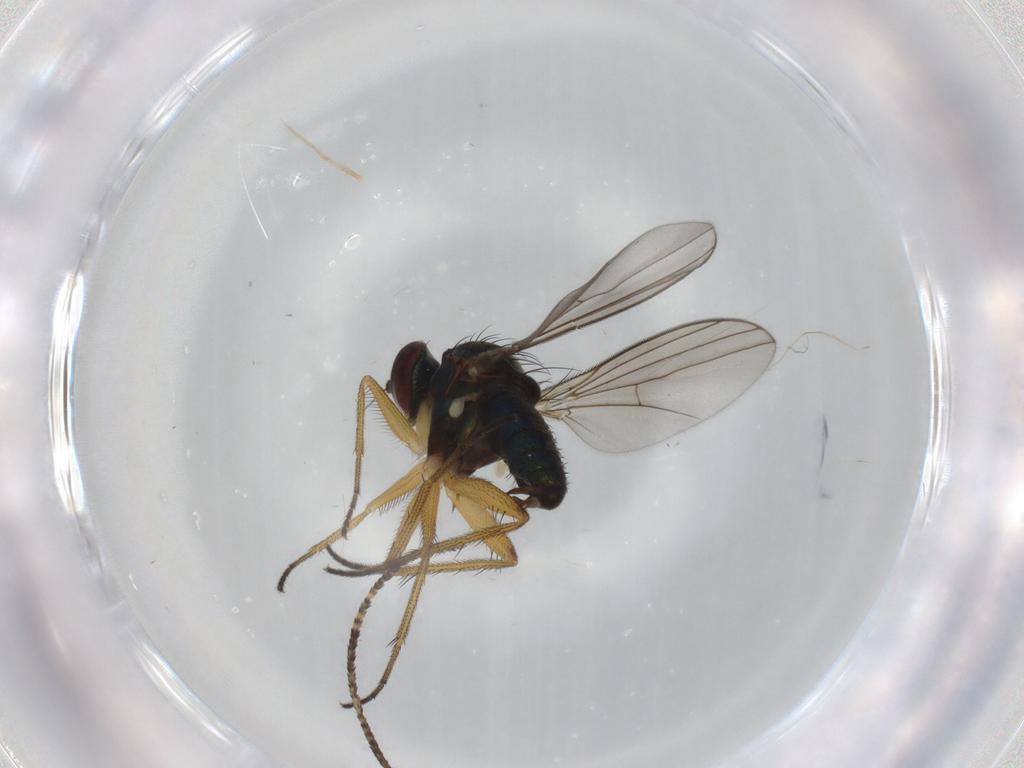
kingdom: Animalia
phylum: Arthropoda
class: Insecta
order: Diptera
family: Dolichopodidae
